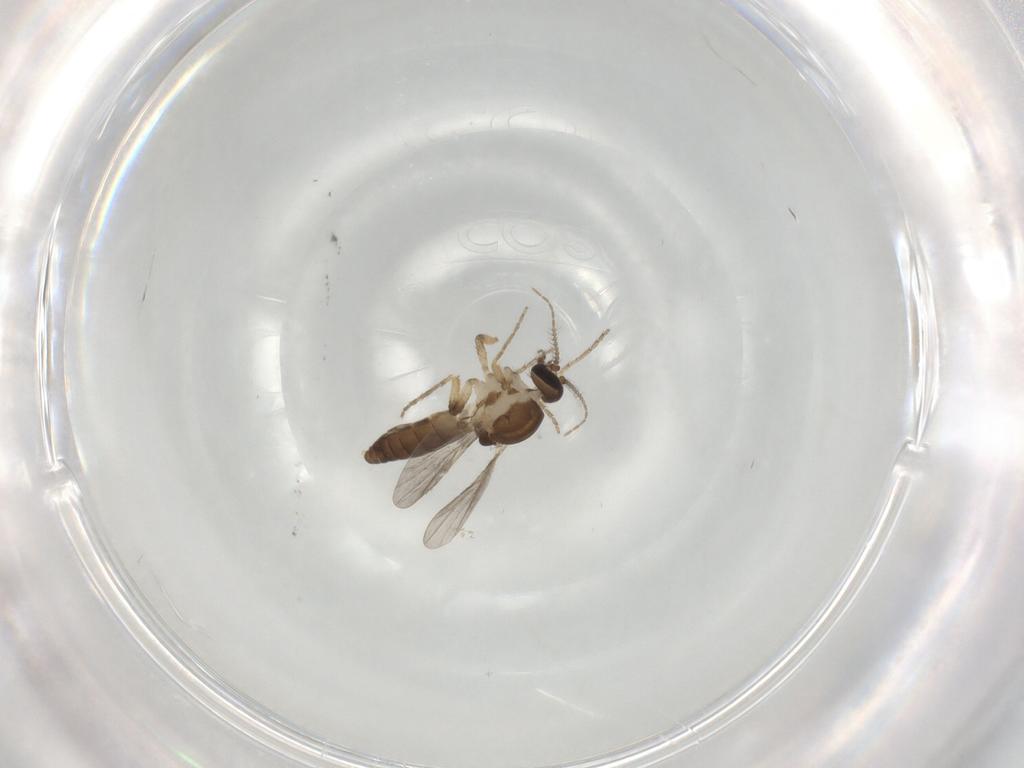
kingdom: Animalia
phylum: Arthropoda
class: Insecta
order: Diptera
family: Ceratopogonidae
